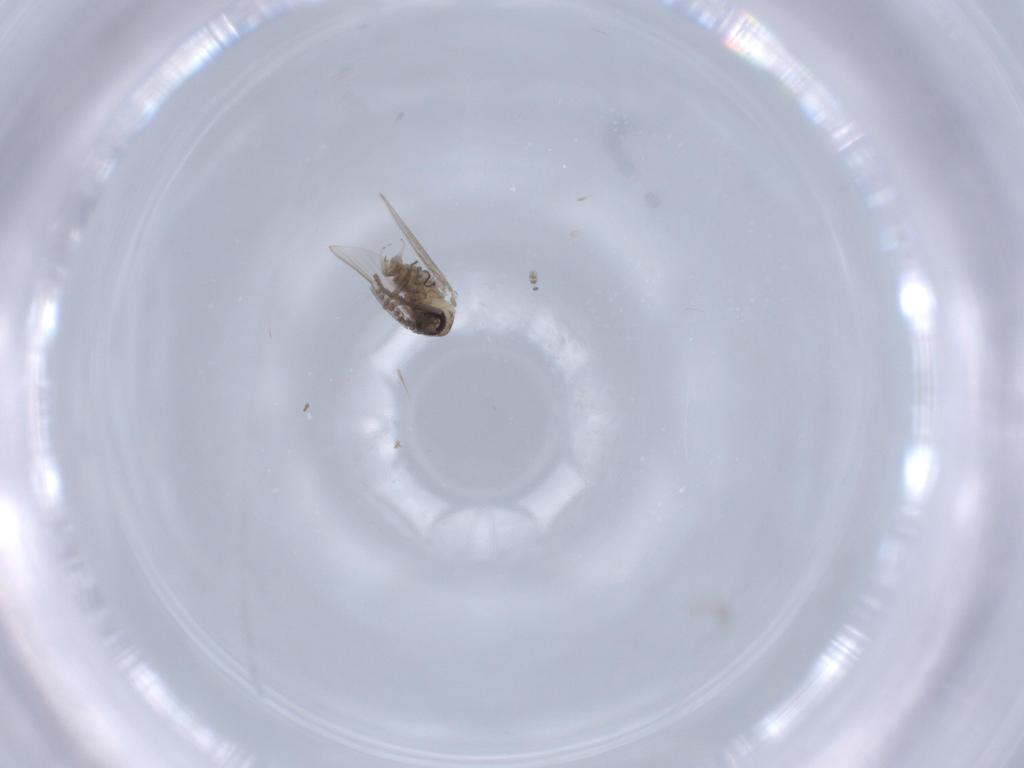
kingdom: Animalia
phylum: Arthropoda
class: Insecta
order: Diptera
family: Psychodidae
